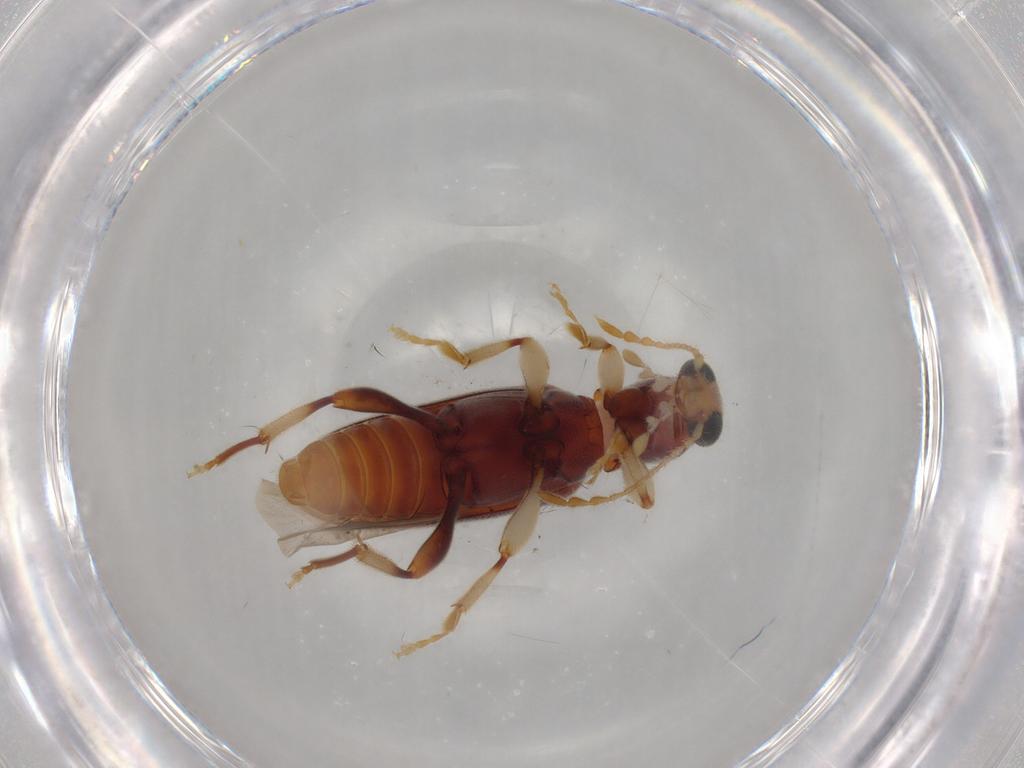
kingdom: Animalia
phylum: Arthropoda
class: Insecta
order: Coleoptera
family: Anthicidae
